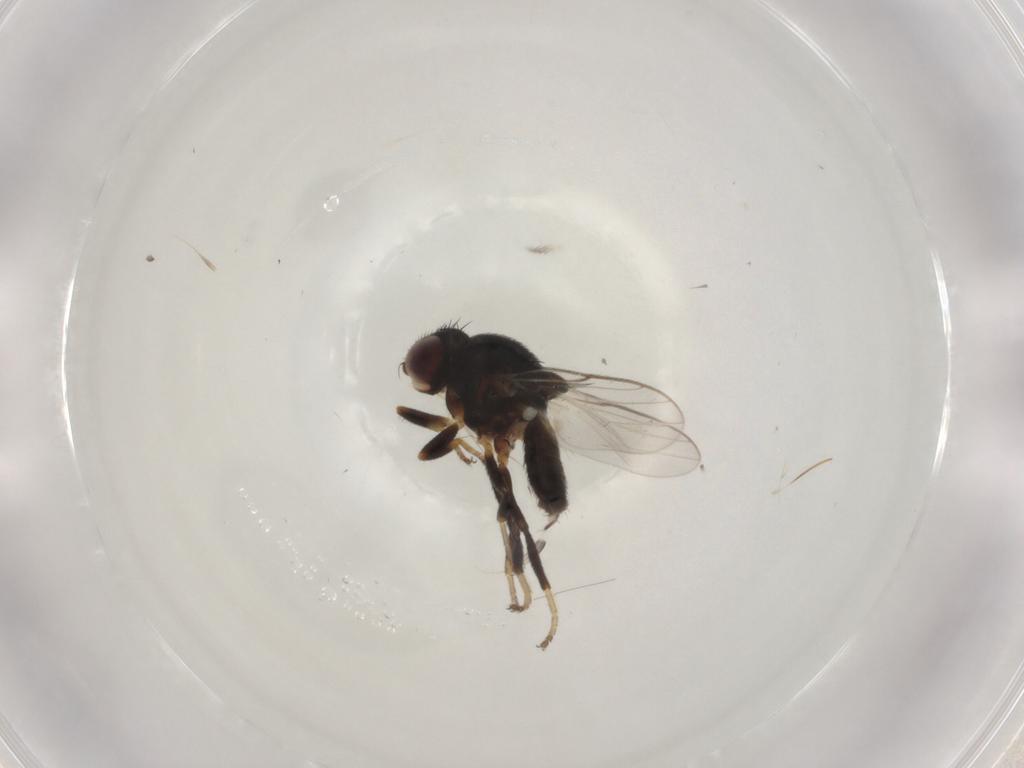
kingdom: Animalia
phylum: Arthropoda
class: Insecta
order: Diptera
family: Chloropidae
